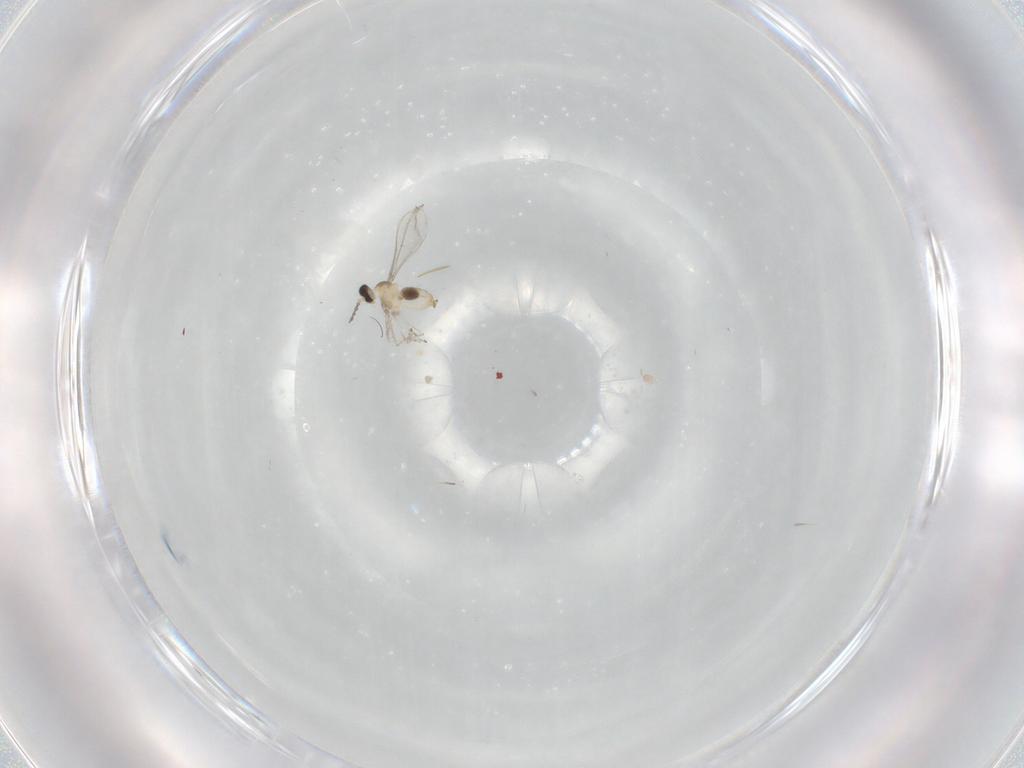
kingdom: Animalia
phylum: Arthropoda
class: Insecta
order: Diptera
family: Cecidomyiidae
